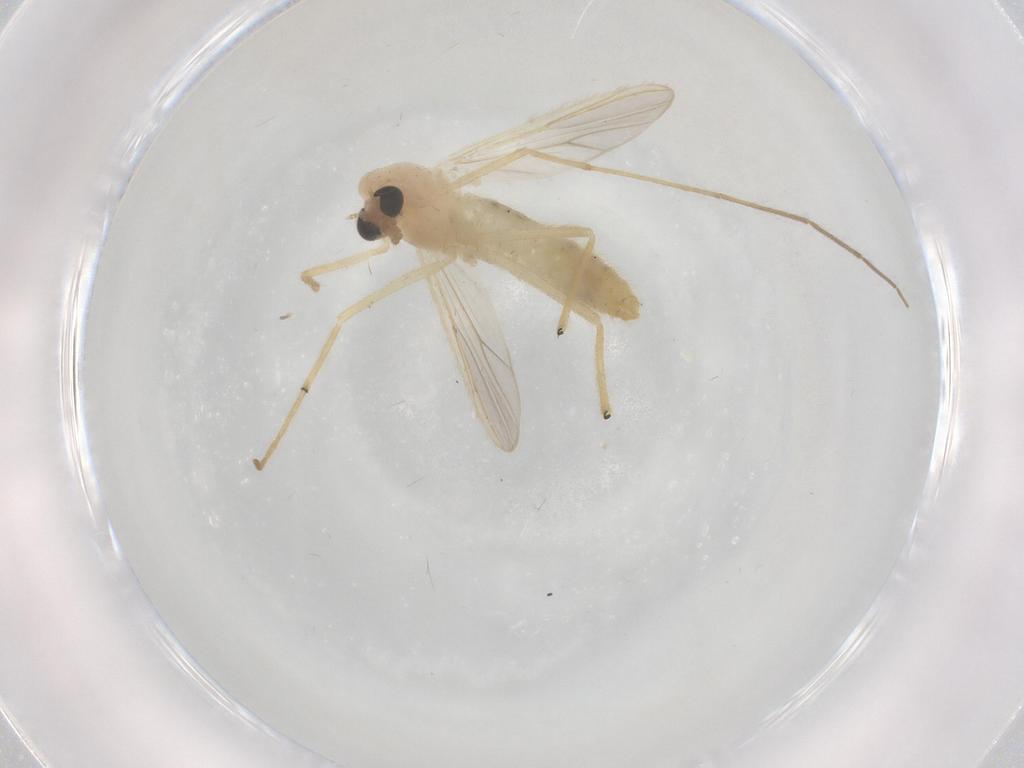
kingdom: Animalia
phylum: Arthropoda
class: Insecta
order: Diptera
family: Chironomidae
